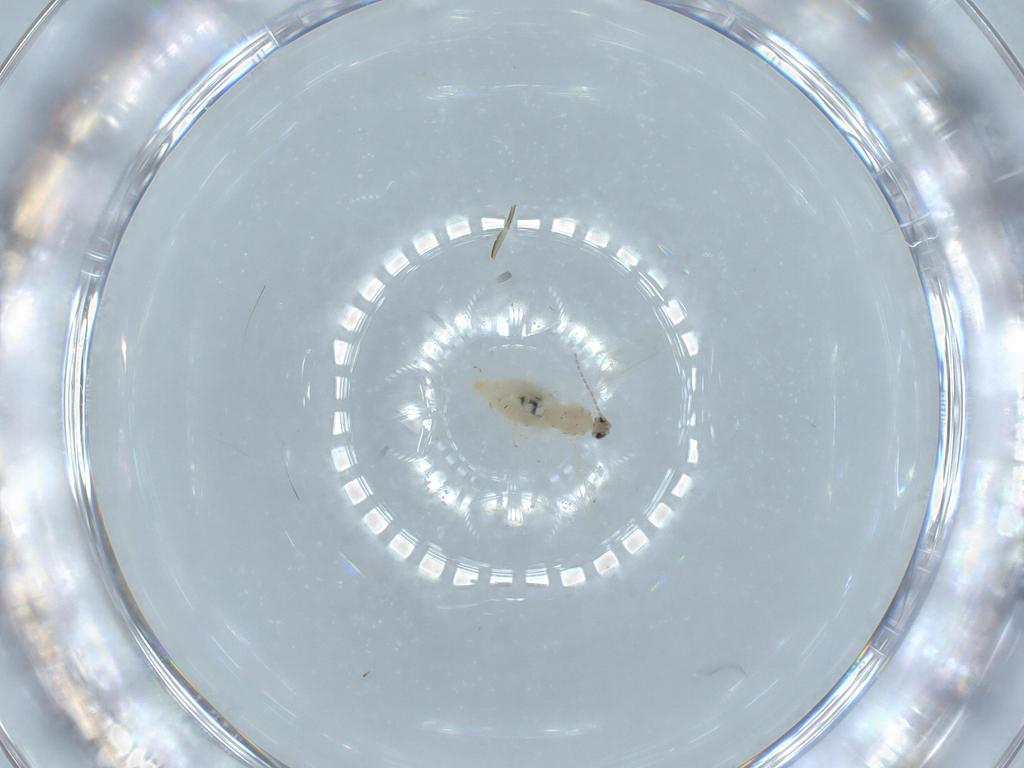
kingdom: Animalia
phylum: Arthropoda
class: Insecta
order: Diptera
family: Cecidomyiidae
